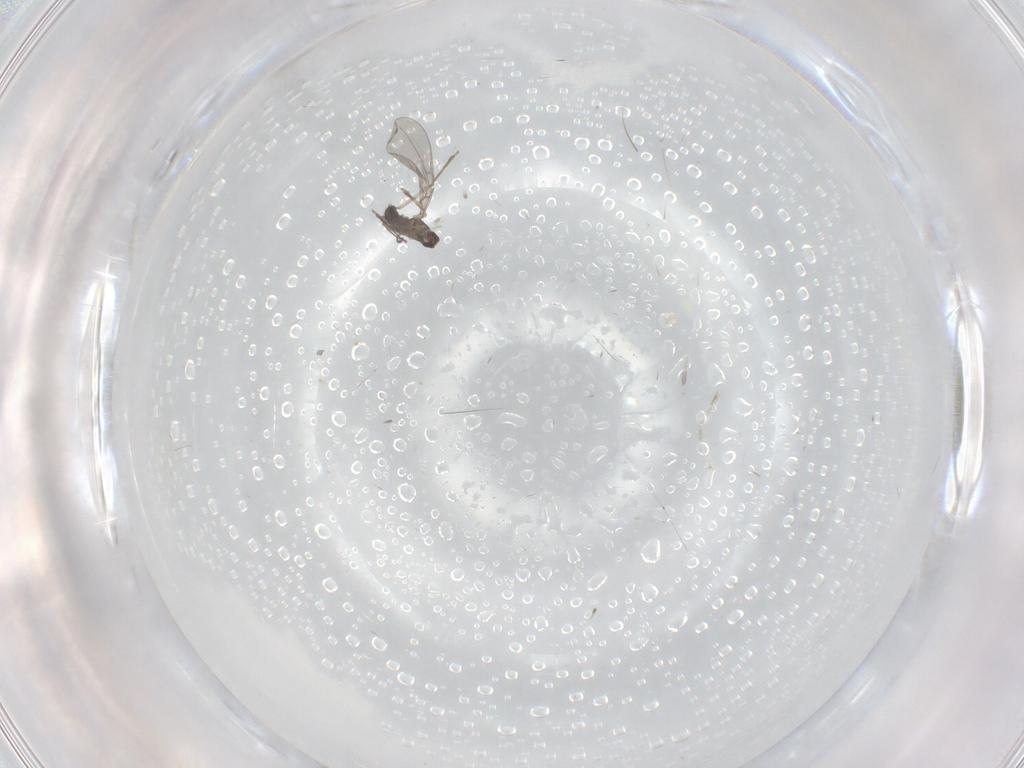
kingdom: Animalia
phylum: Arthropoda
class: Insecta
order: Diptera
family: Cecidomyiidae
